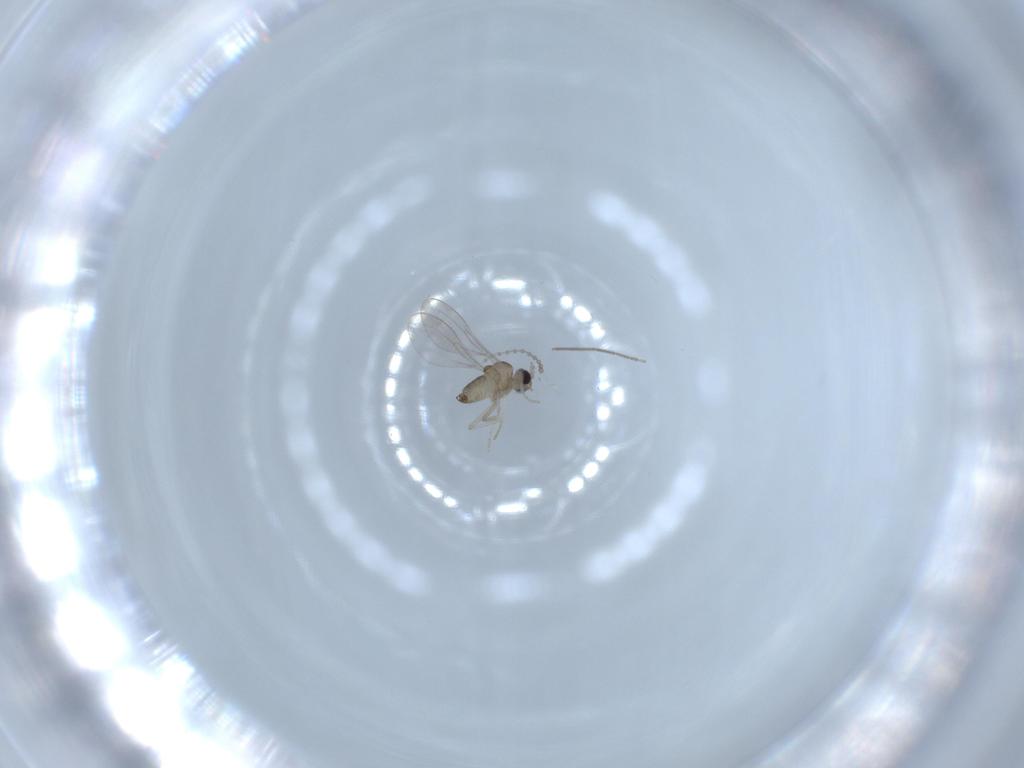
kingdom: Animalia
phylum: Arthropoda
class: Insecta
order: Diptera
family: Cecidomyiidae
